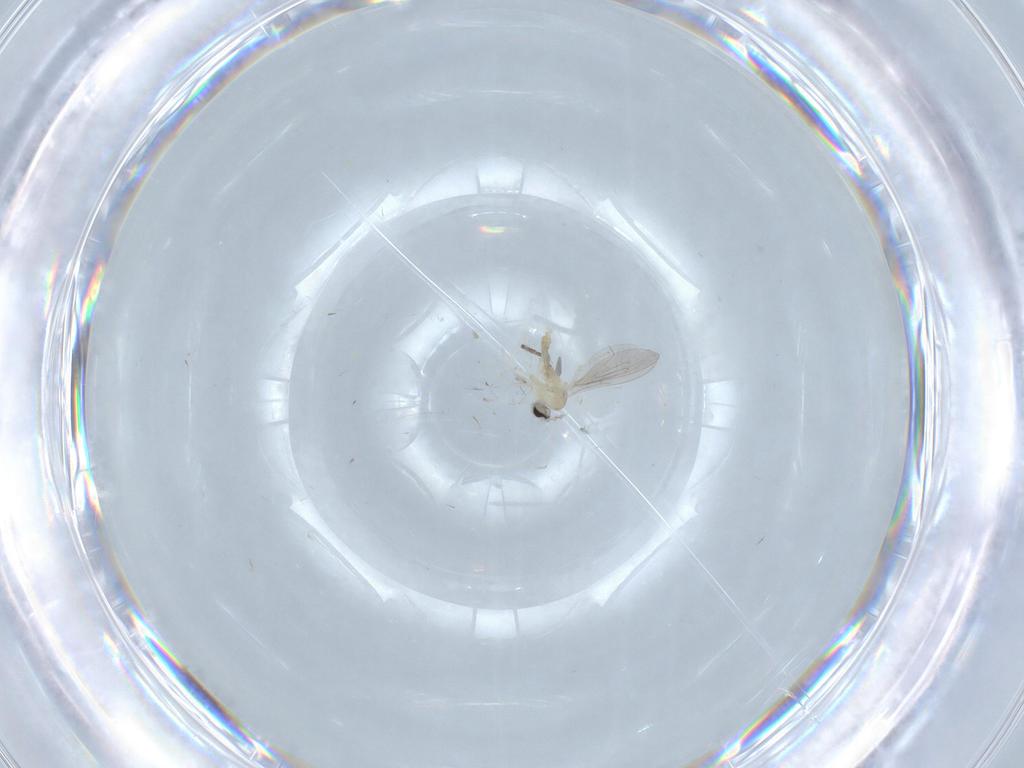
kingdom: Animalia
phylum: Arthropoda
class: Insecta
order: Diptera
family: Cecidomyiidae
